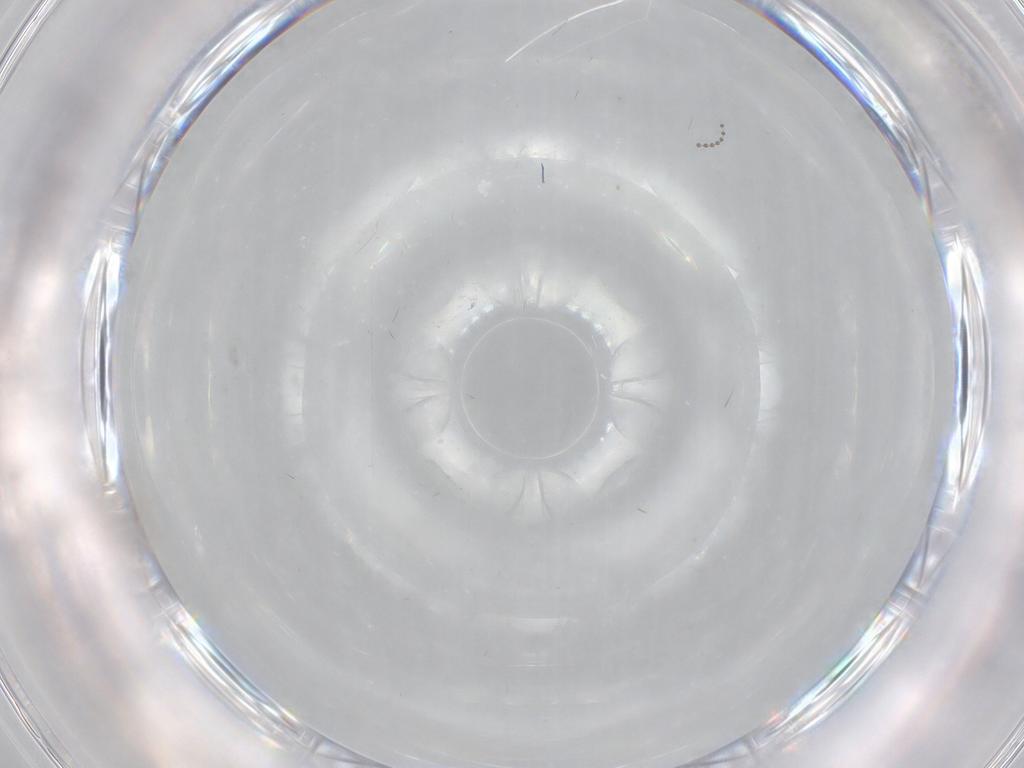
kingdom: Animalia
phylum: Arthropoda
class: Insecta
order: Diptera
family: Cecidomyiidae
